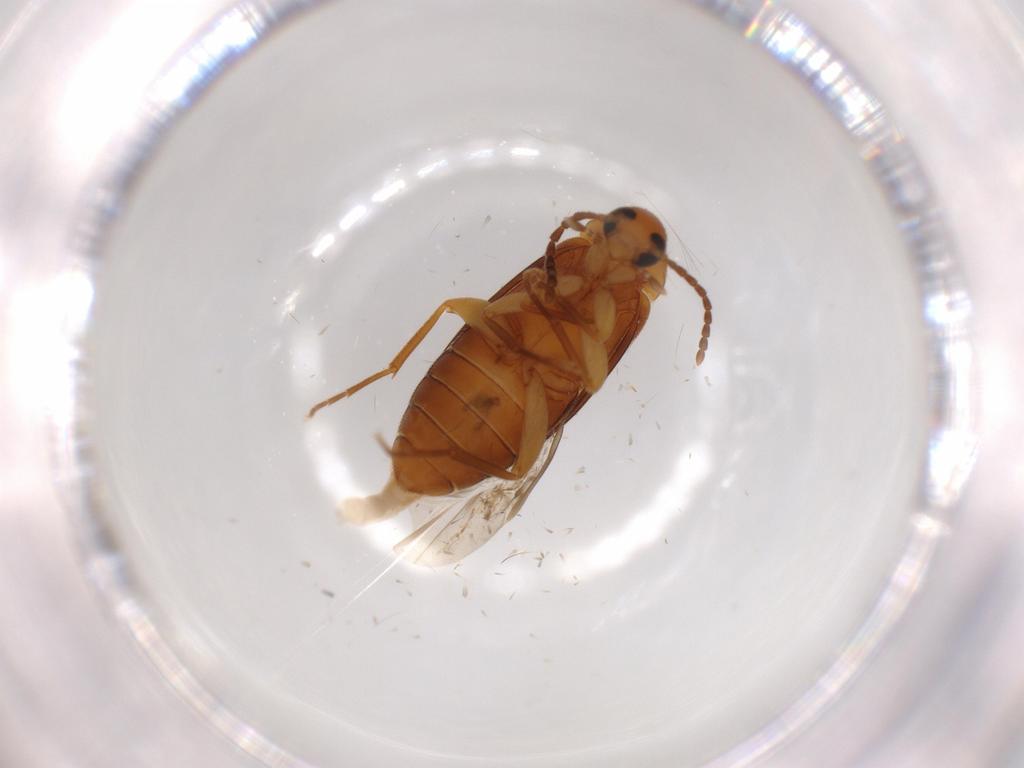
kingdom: Animalia
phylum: Arthropoda
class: Insecta
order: Coleoptera
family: Scraptiidae
